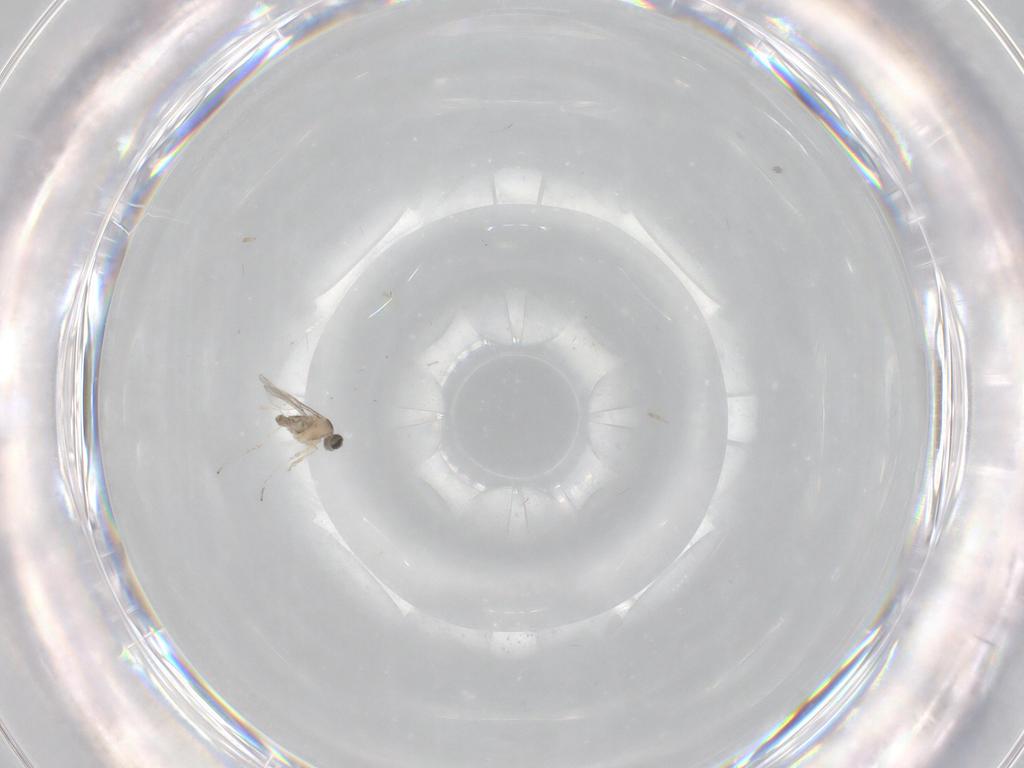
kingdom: Animalia
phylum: Arthropoda
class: Insecta
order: Diptera
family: Cecidomyiidae
